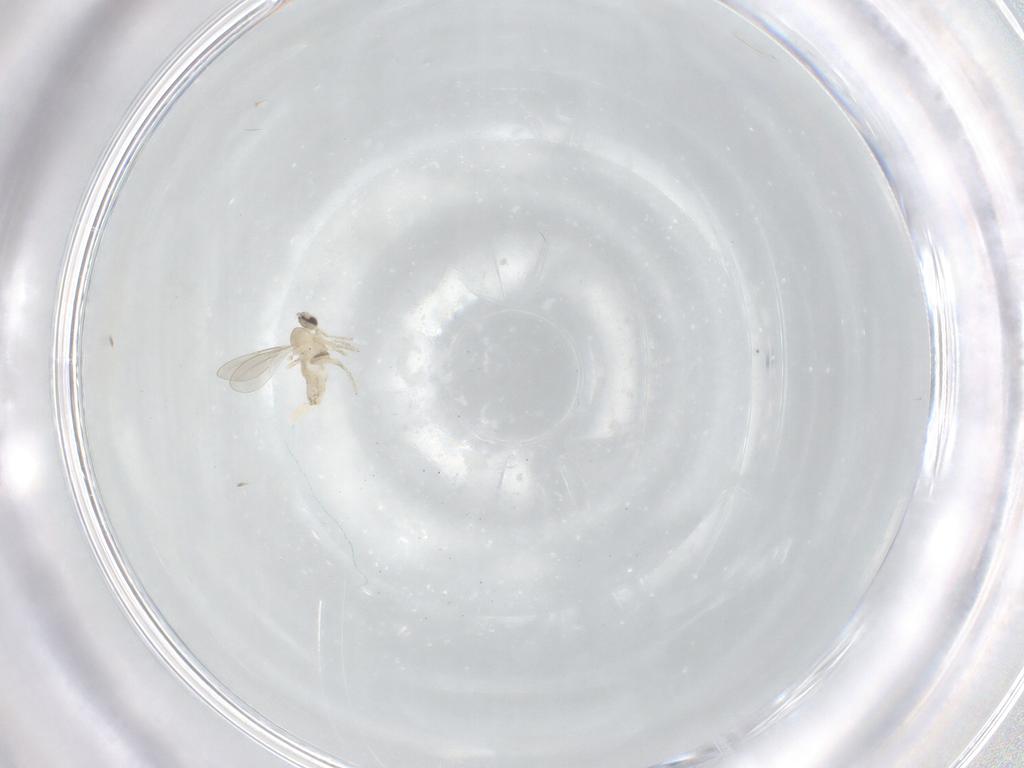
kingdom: Animalia
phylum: Arthropoda
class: Insecta
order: Diptera
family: Cecidomyiidae
